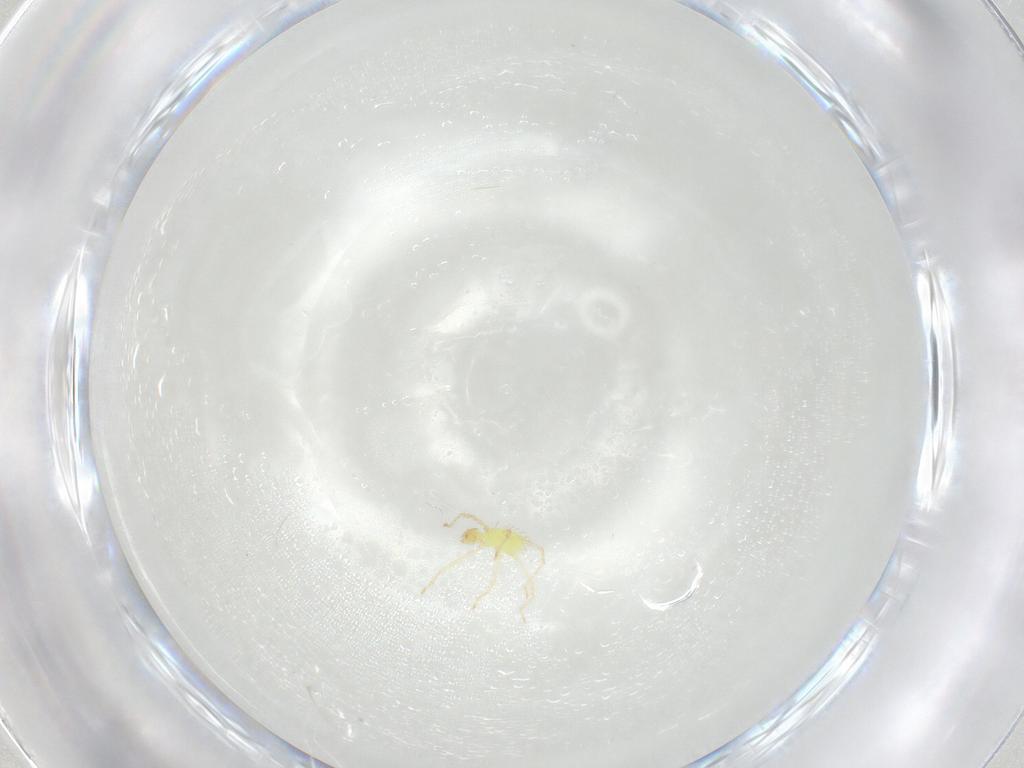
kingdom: Animalia
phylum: Arthropoda
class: Arachnida
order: Trombidiformes
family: Erythraeidae
